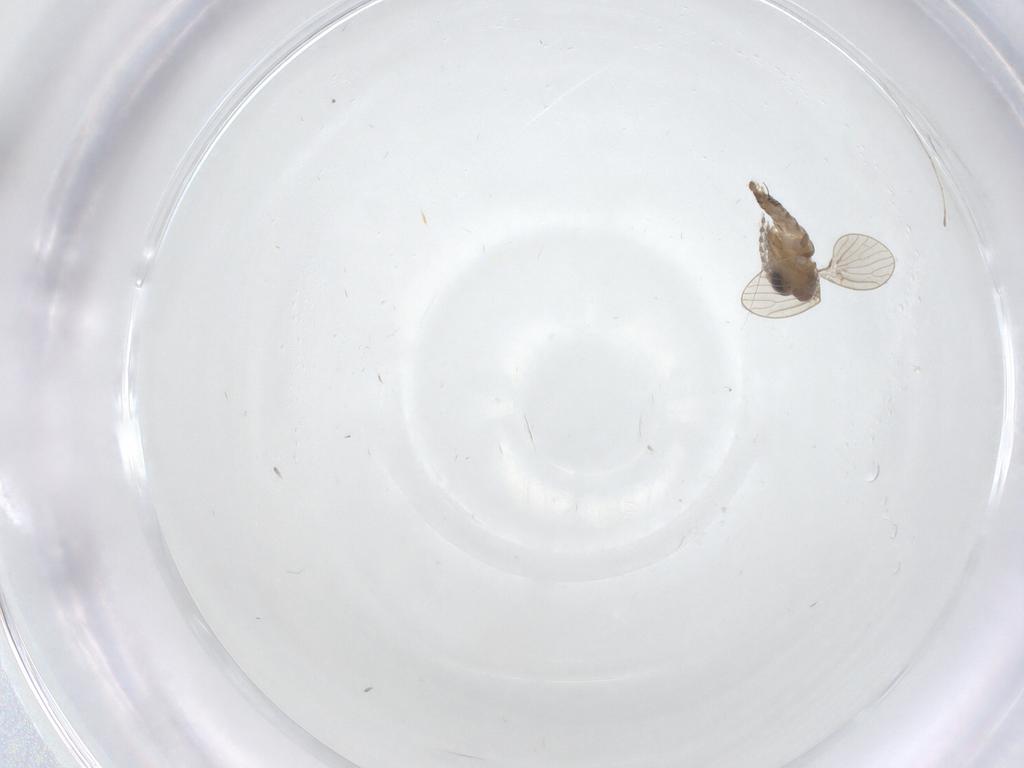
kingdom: Animalia
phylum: Arthropoda
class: Insecta
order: Diptera
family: Cecidomyiidae
